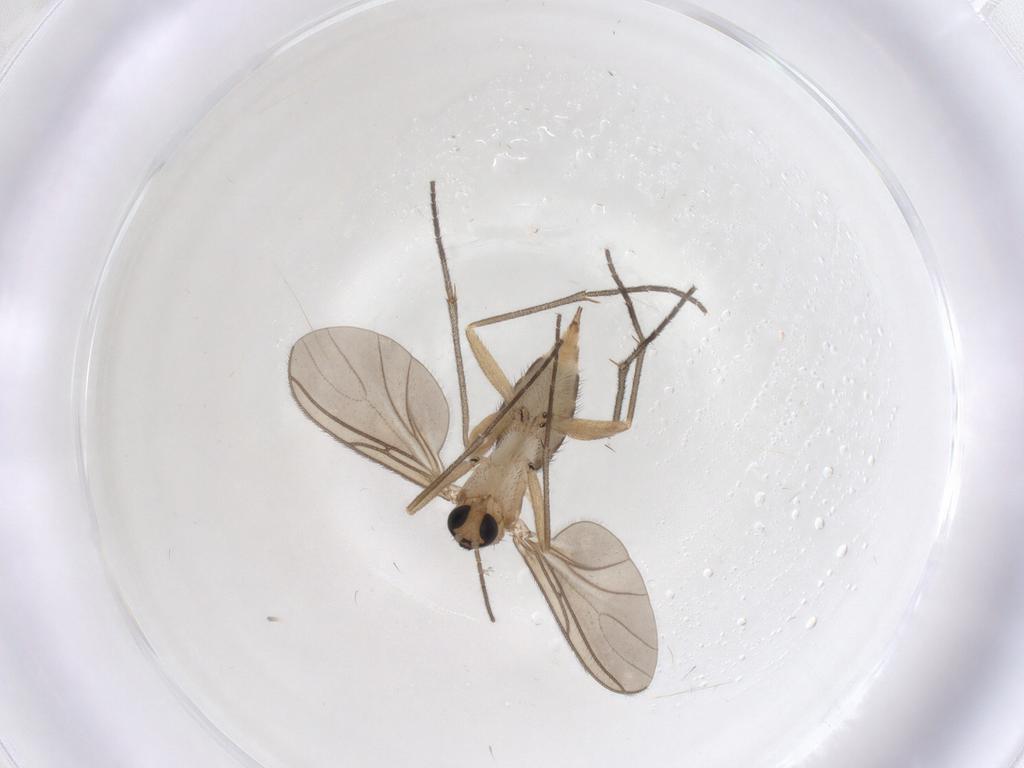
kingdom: Animalia
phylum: Arthropoda
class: Insecta
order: Diptera
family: Sciaridae
